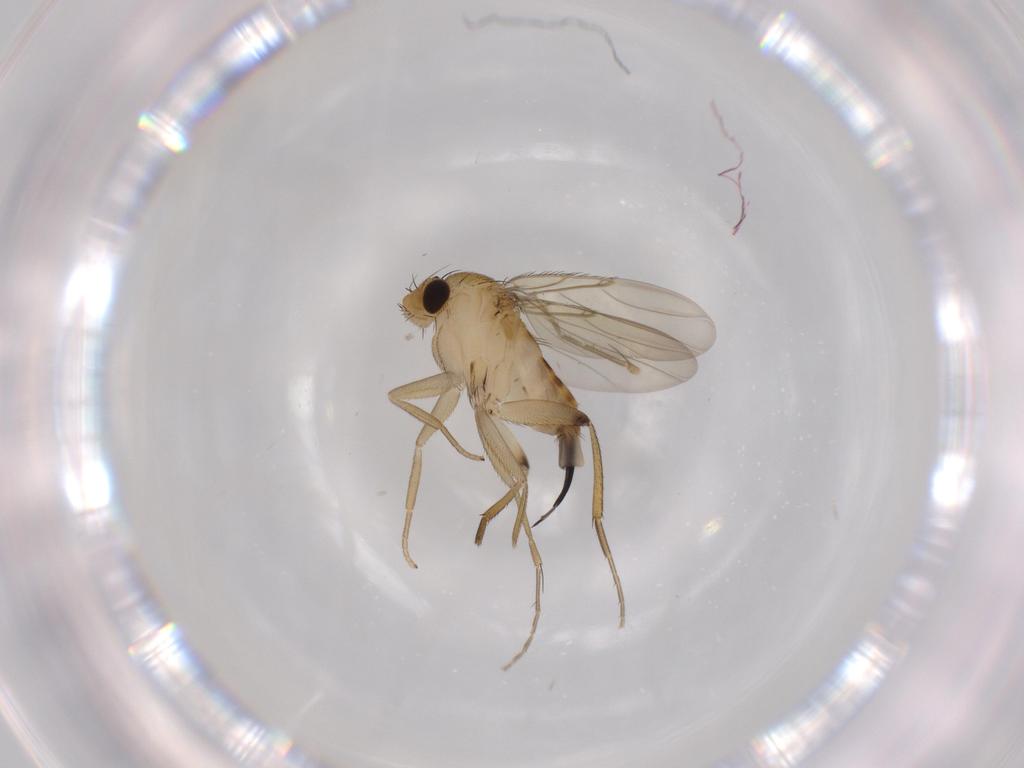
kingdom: Animalia
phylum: Arthropoda
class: Insecta
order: Diptera
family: Phoridae
